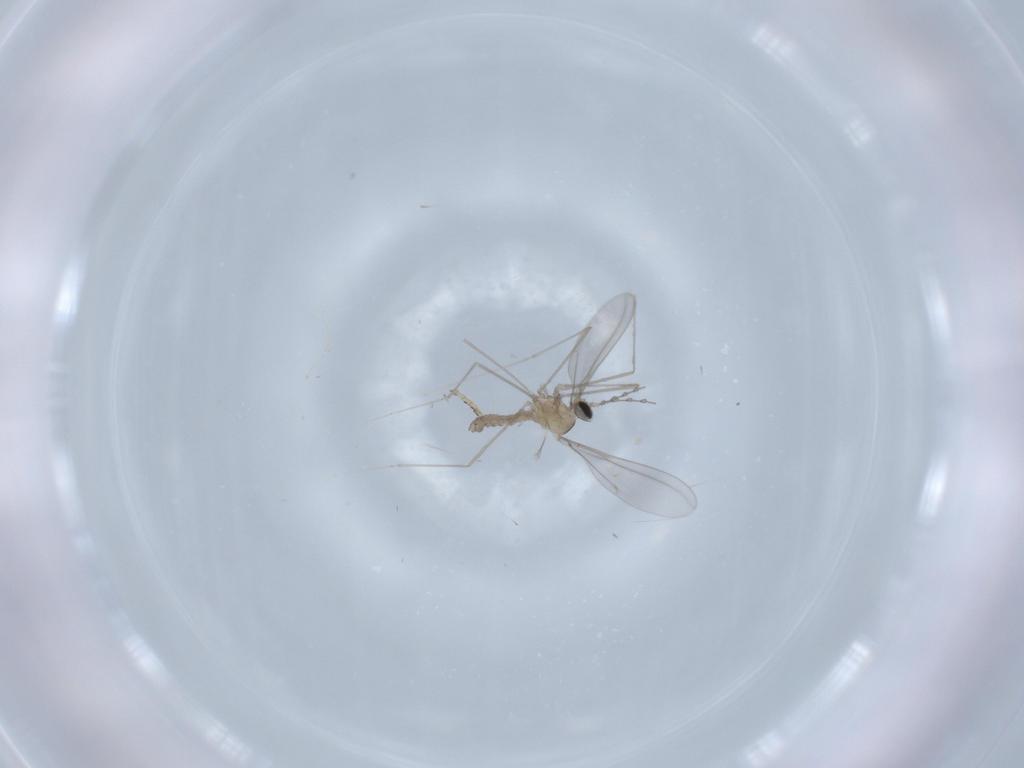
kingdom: Animalia
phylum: Arthropoda
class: Insecta
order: Diptera
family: Cecidomyiidae
